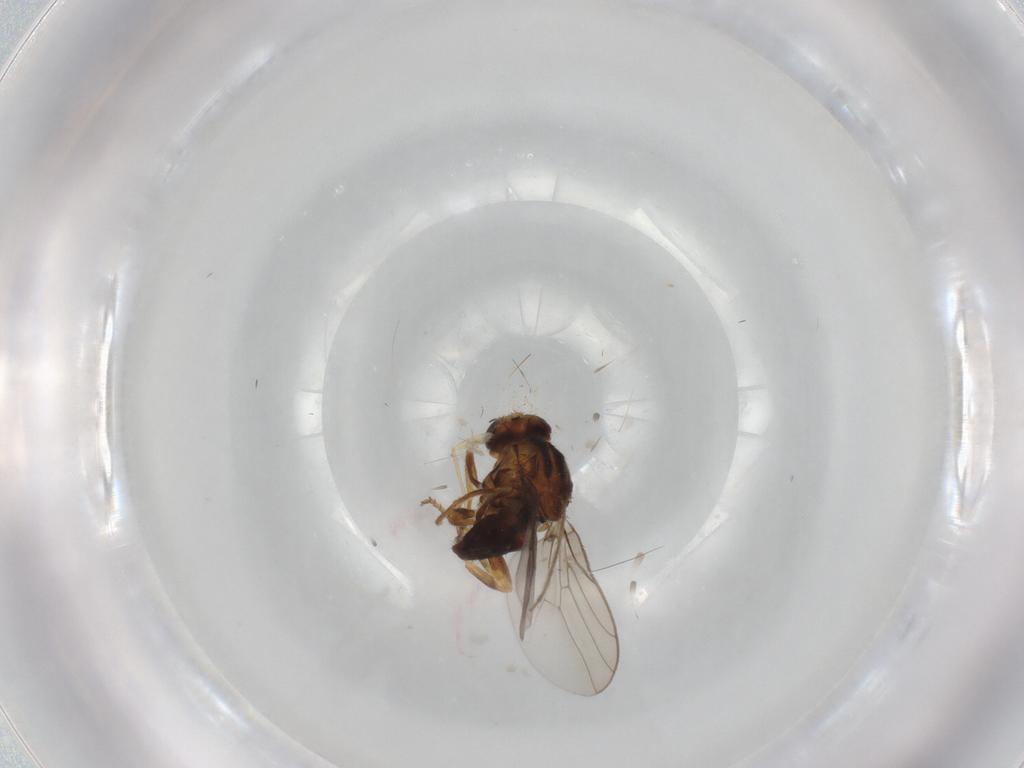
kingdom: Animalia
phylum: Arthropoda
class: Insecta
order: Diptera
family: Chloropidae
